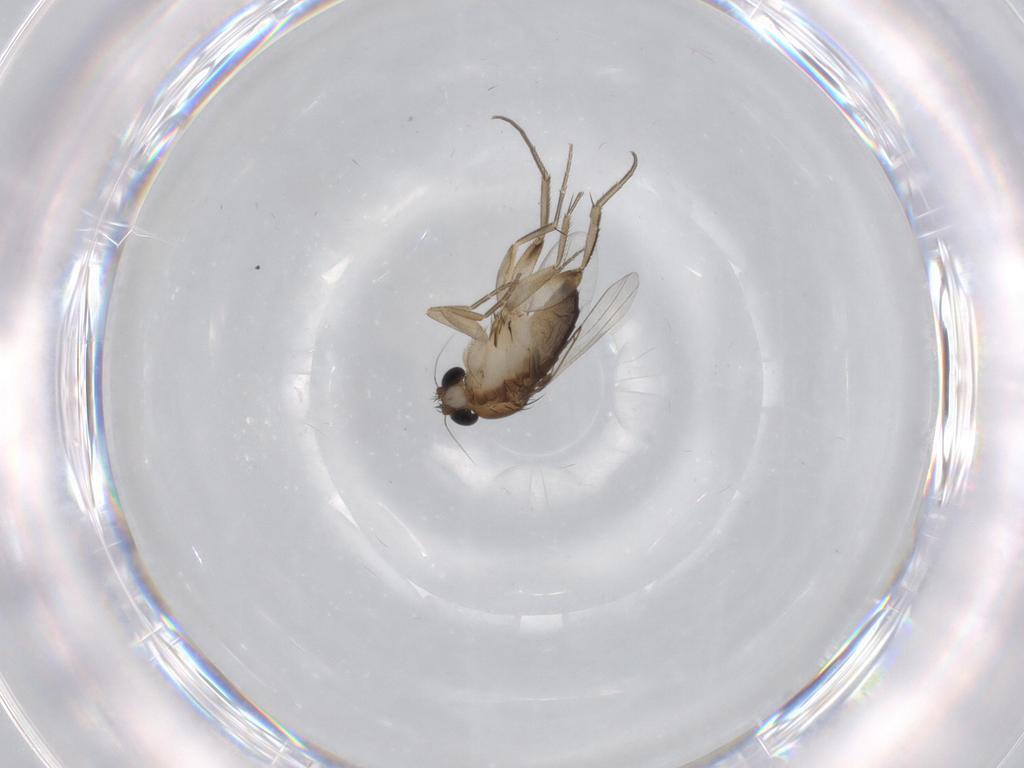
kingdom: Animalia
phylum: Arthropoda
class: Insecta
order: Diptera
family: Phoridae
